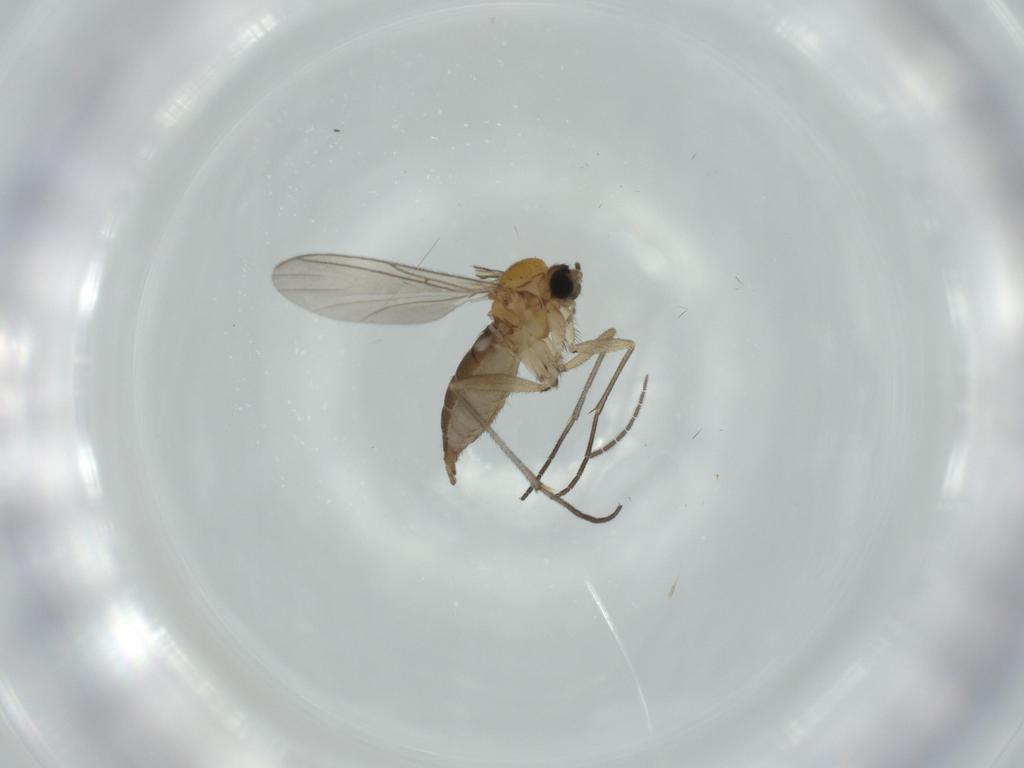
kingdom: Animalia
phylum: Arthropoda
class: Insecta
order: Diptera
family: Sciaridae
